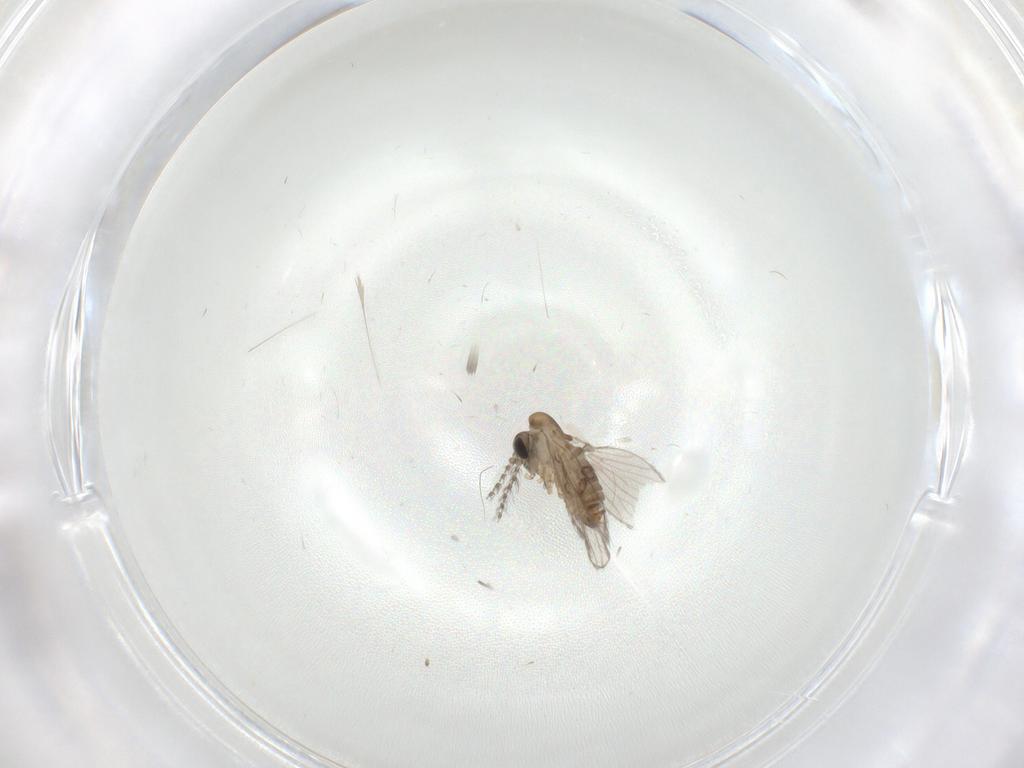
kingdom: Animalia
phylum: Arthropoda
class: Insecta
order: Diptera
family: Psychodidae
